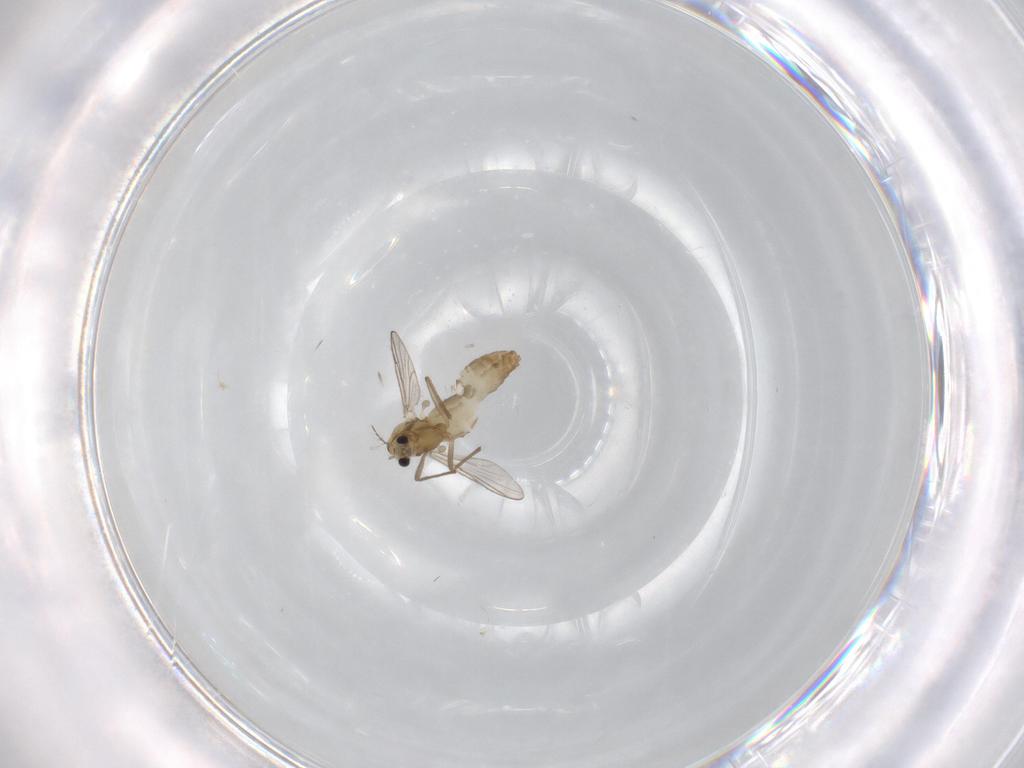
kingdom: Animalia
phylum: Arthropoda
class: Insecta
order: Diptera
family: Chironomidae
